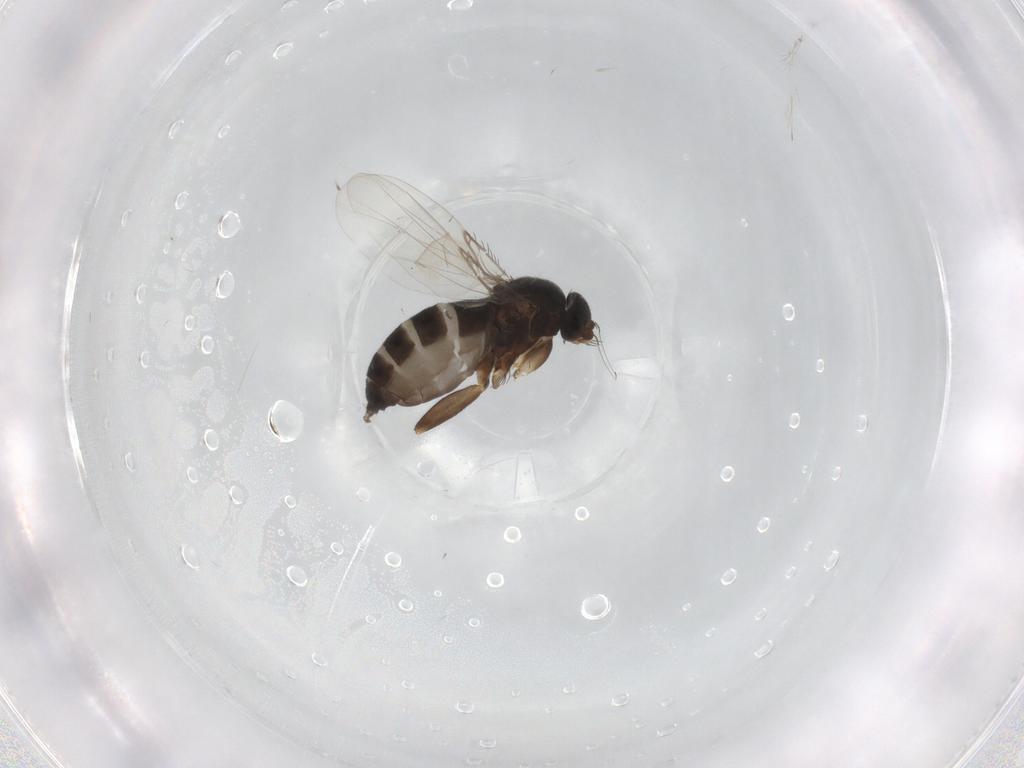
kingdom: Animalia
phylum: Arthropoda
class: Insecta
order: Diptera
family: Phoridae
